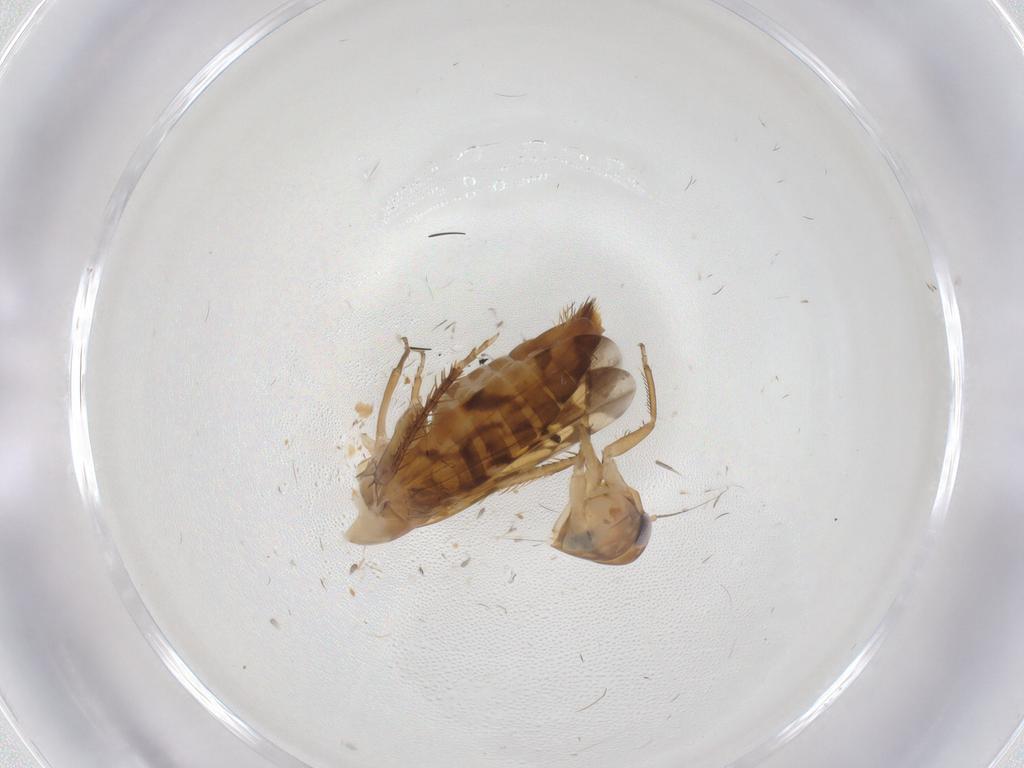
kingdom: Animalia
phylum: Arthropoda
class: Insecta
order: Hemiptera
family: Cicadellidae
